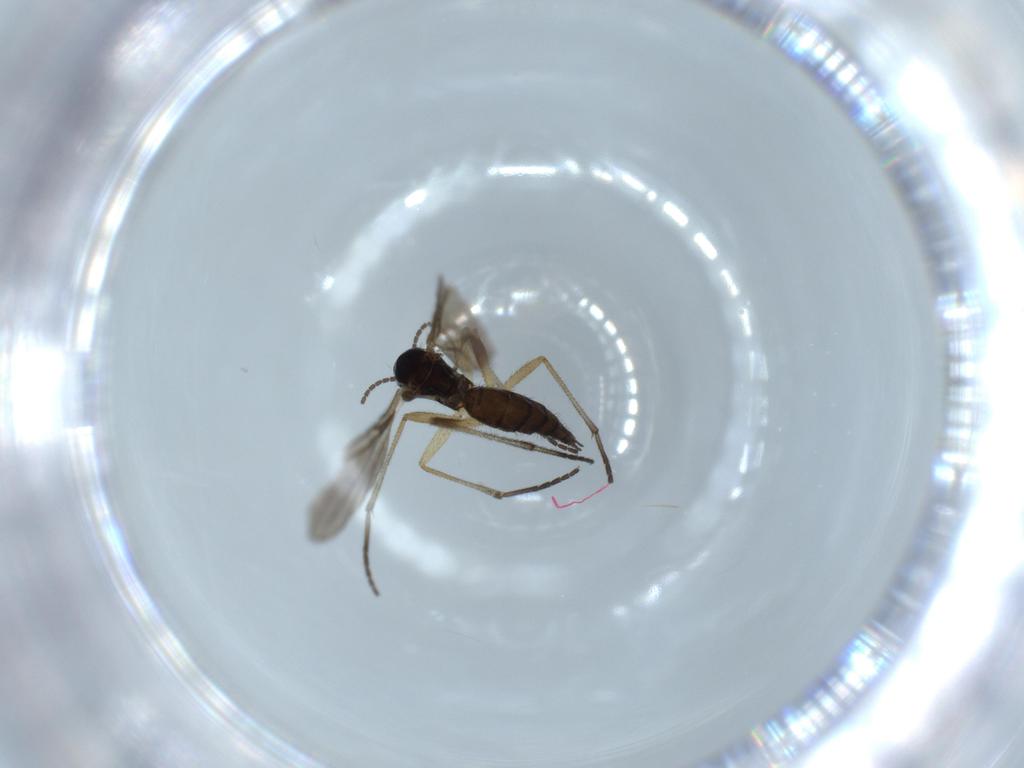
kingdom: Animalia
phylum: Arthropoda
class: Insecta
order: Diptera
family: Sciaridae
